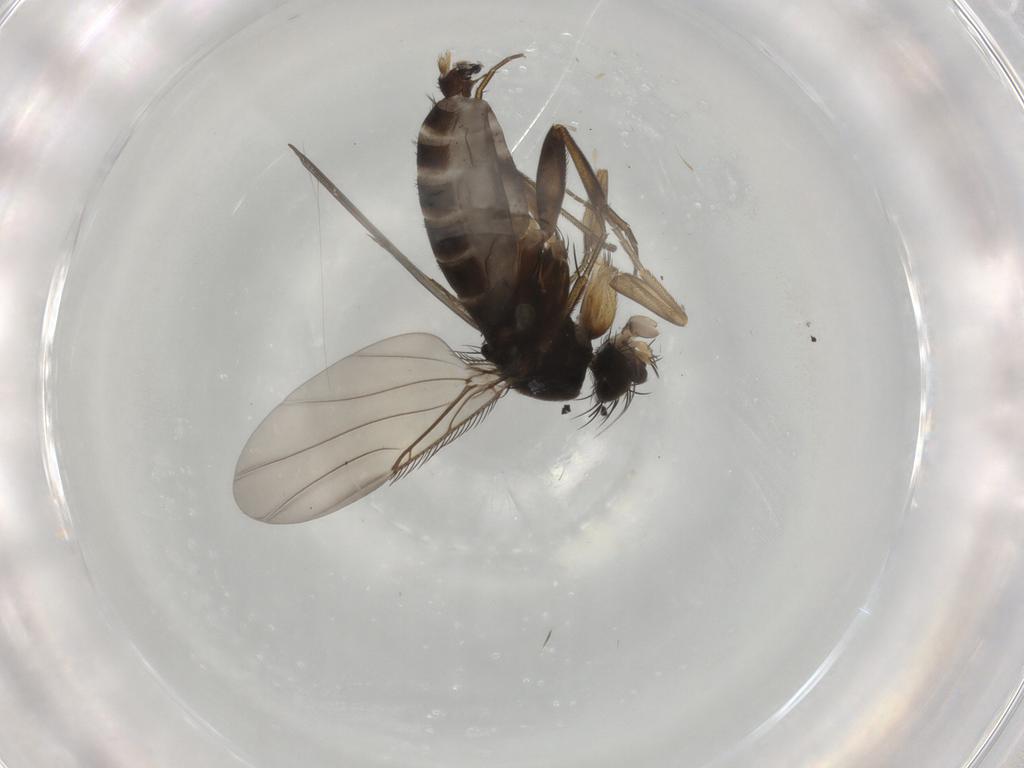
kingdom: Animalia
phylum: Arthropoda
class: Insecta
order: Diptera
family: Phoridae
